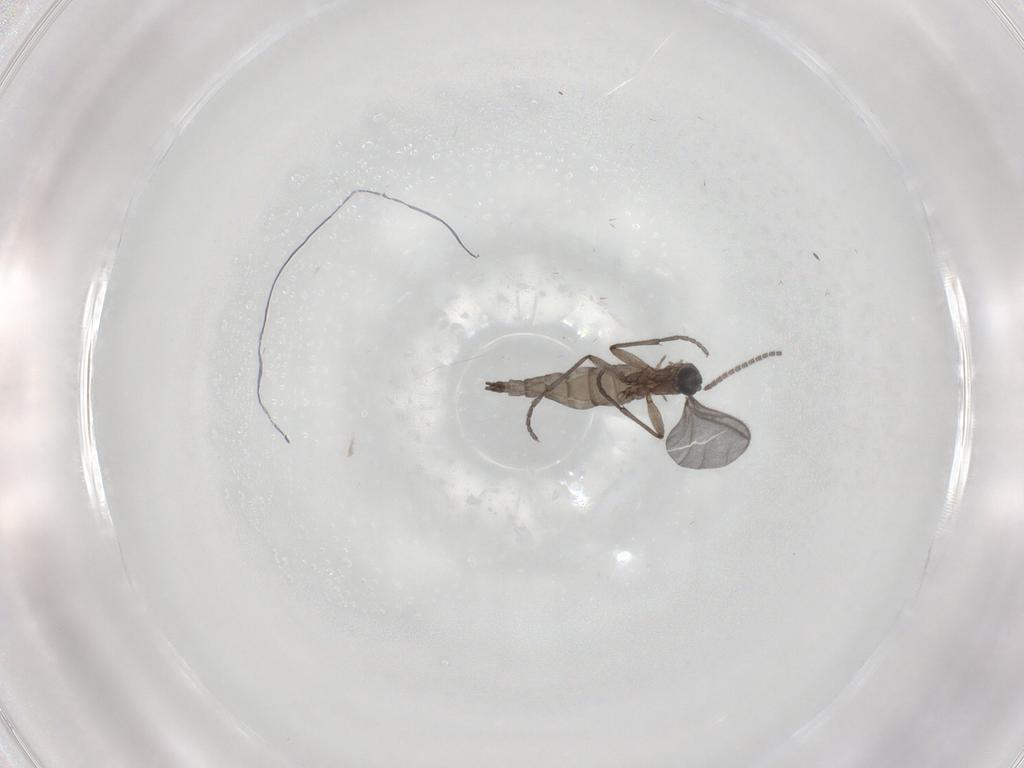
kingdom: Animalia
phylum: Arthropoda
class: Insecta
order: Diptera
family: Sciaridae
